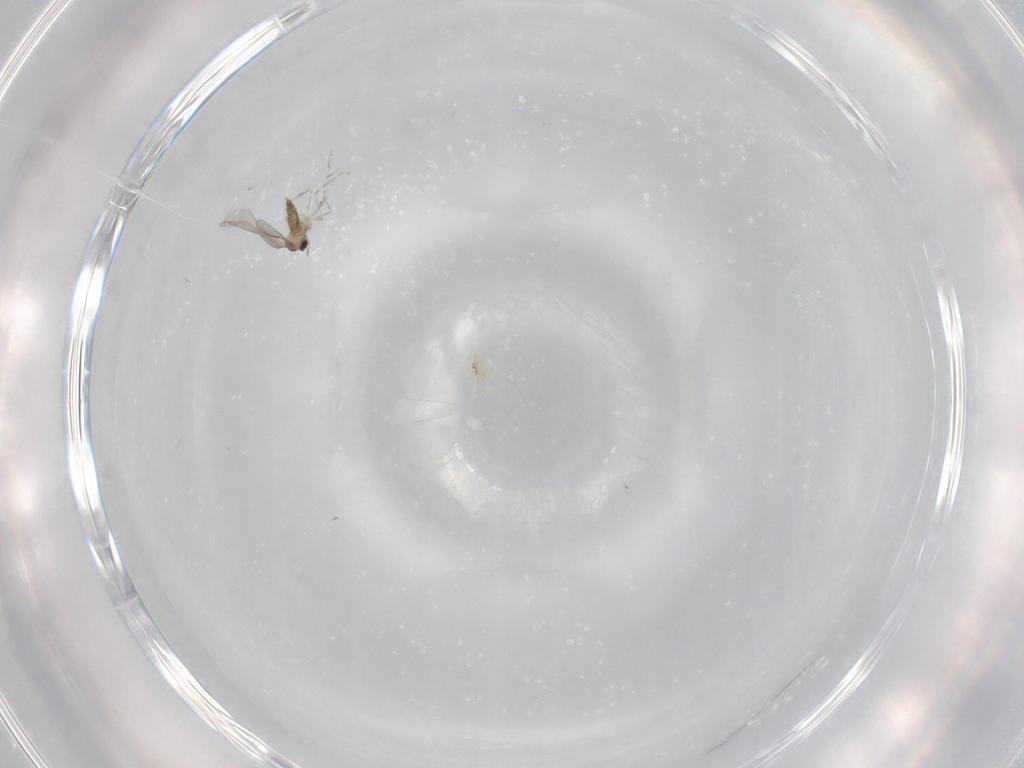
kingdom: Animalia
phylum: Arthropoda
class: Insecta
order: Diptera
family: Cecidomyiidae
